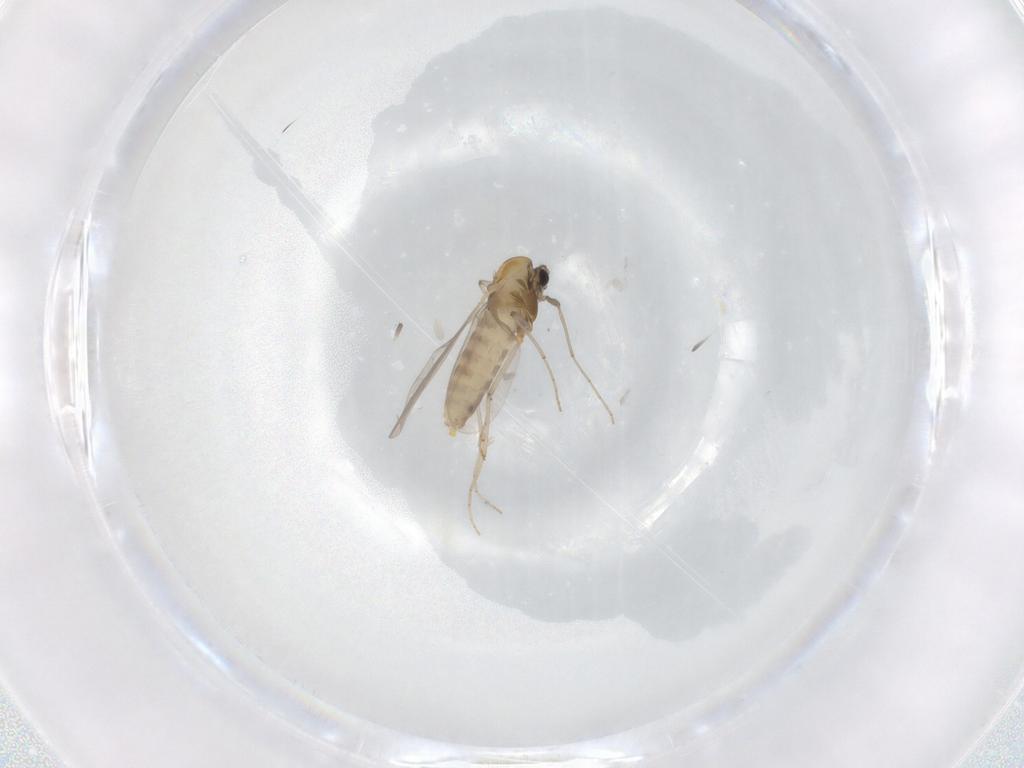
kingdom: Animalia
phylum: Arthropoda
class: Insecta
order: Diptera
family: Chironomidae
